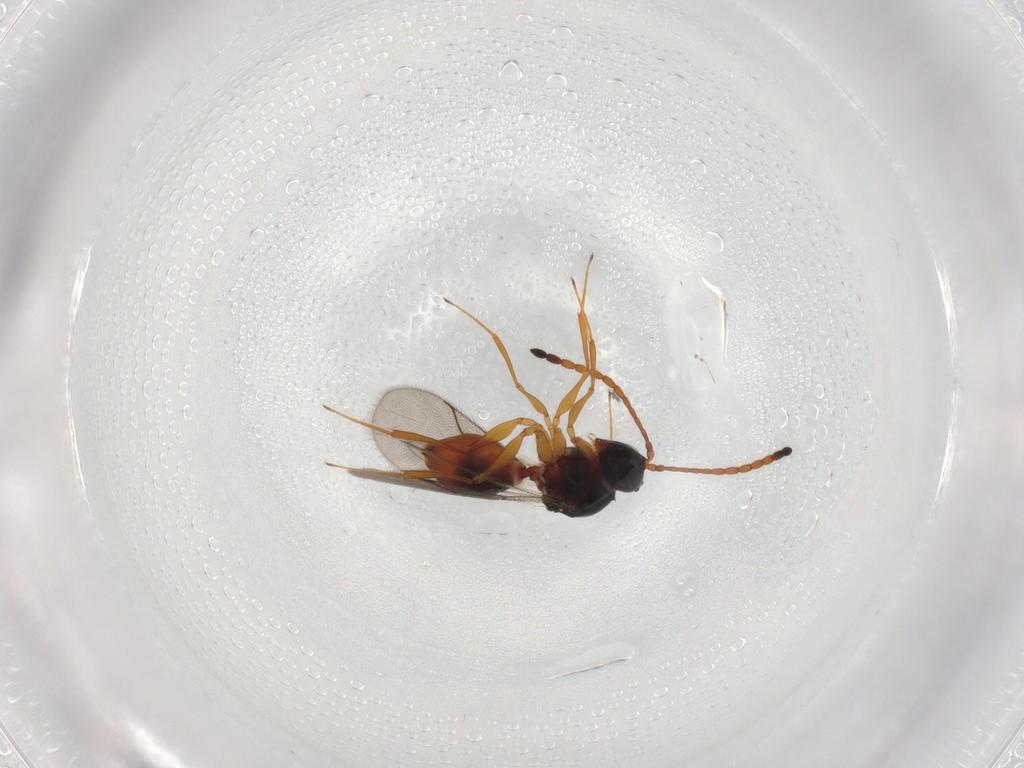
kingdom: Animalia
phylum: Arthropoda
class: Insecta
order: Hymenoptera
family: Figitidae
